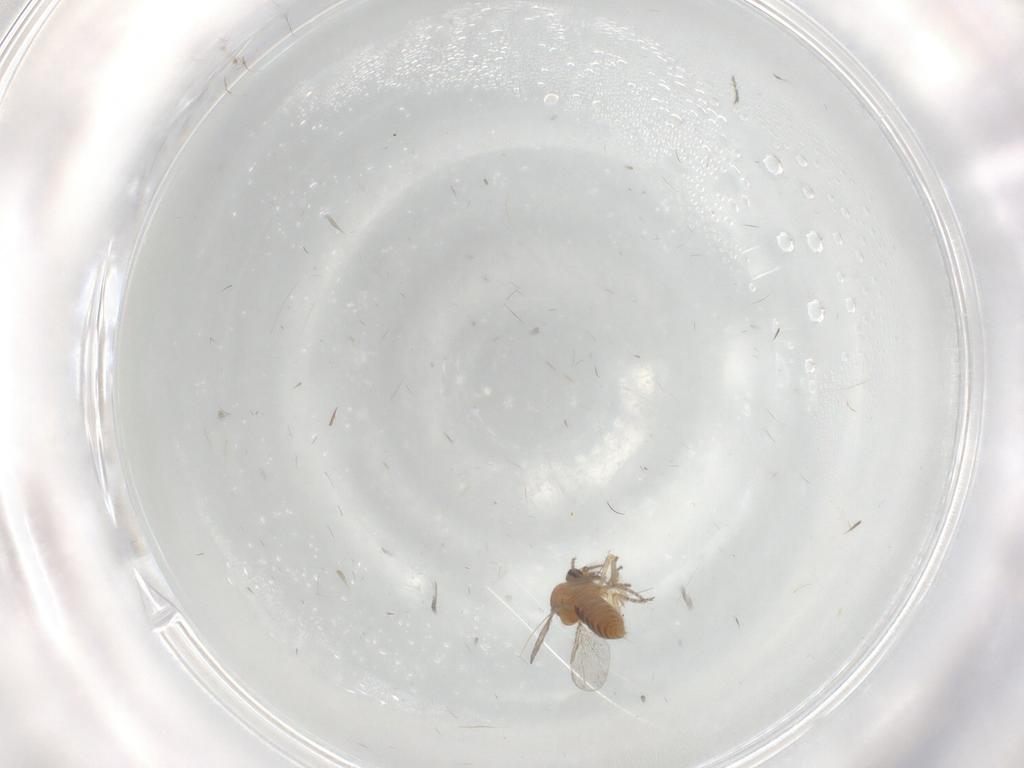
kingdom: Animalia
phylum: Arthropoda
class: Insecta
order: Diptera
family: Ceratopogonidae
